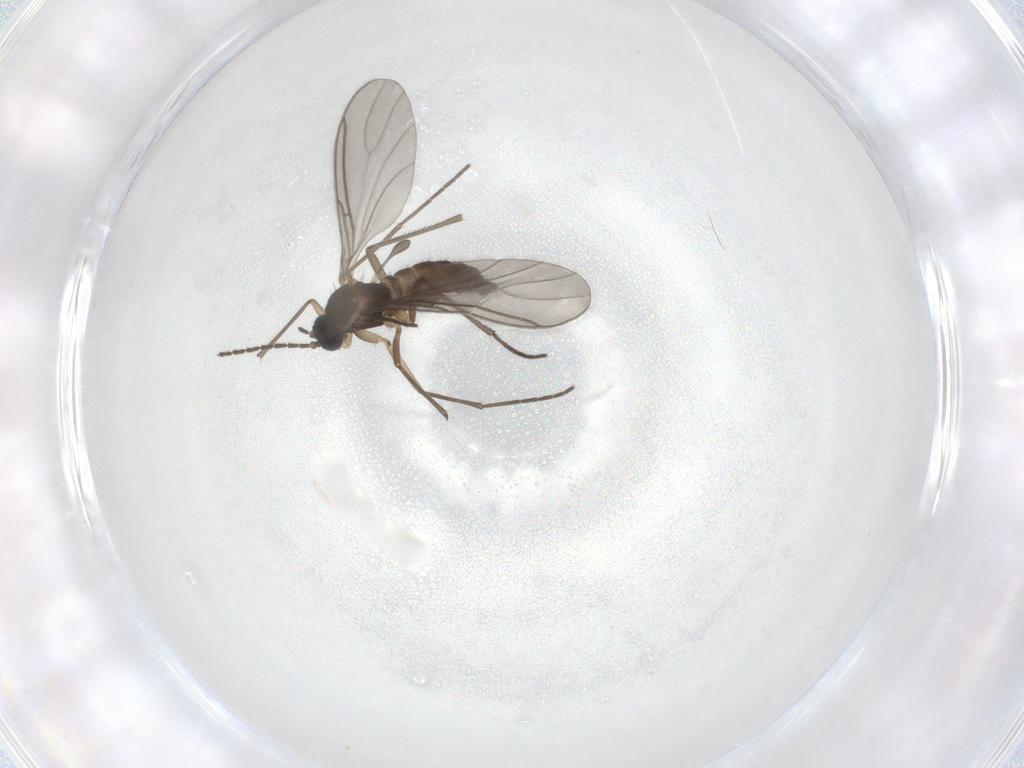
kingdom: Animalia
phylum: Arthropoda
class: Insecta
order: Diptera
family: Sciaridae
